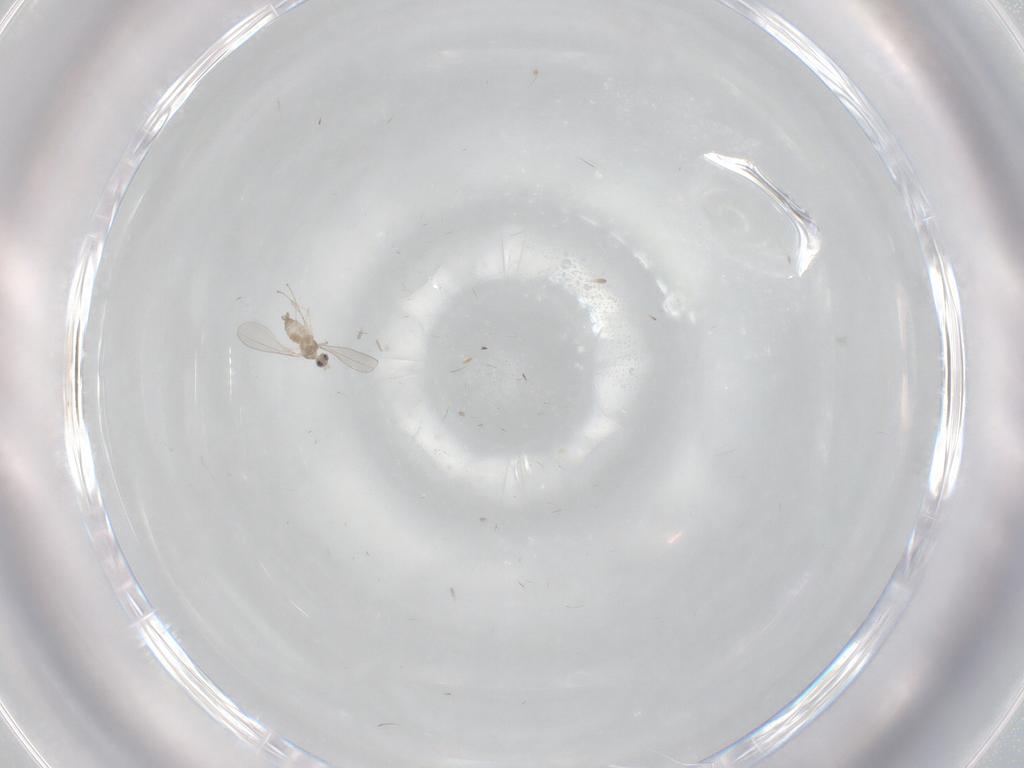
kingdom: Animalia
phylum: Arthropoda
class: Insecta
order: Diptera
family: Cecidomyiidae
